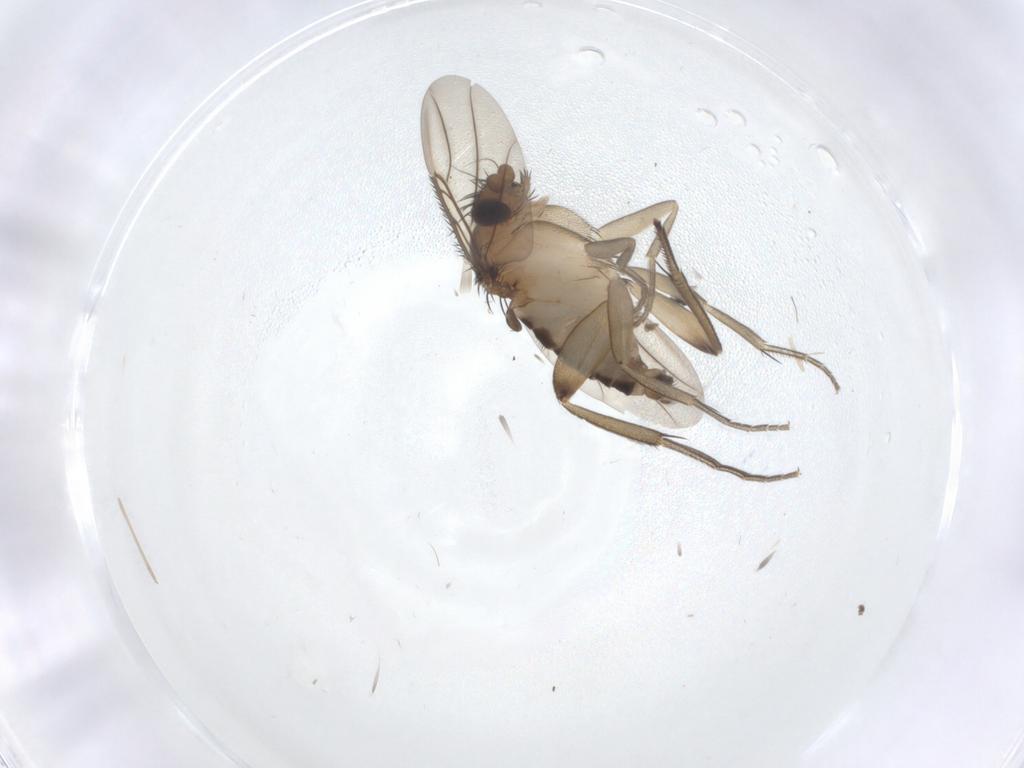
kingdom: Animalia
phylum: Arthropoda
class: Insecta
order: Diptera
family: Phoridae
